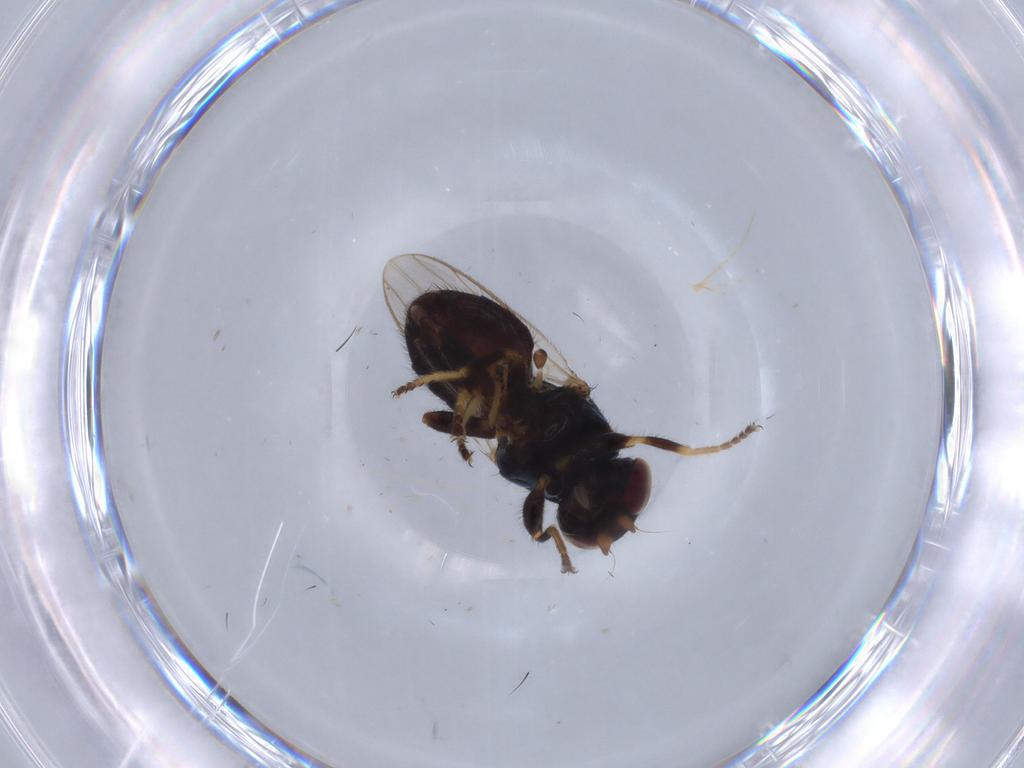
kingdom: Animalia
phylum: Arthropoda
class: Insecta
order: Diptera
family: Chloropidae
